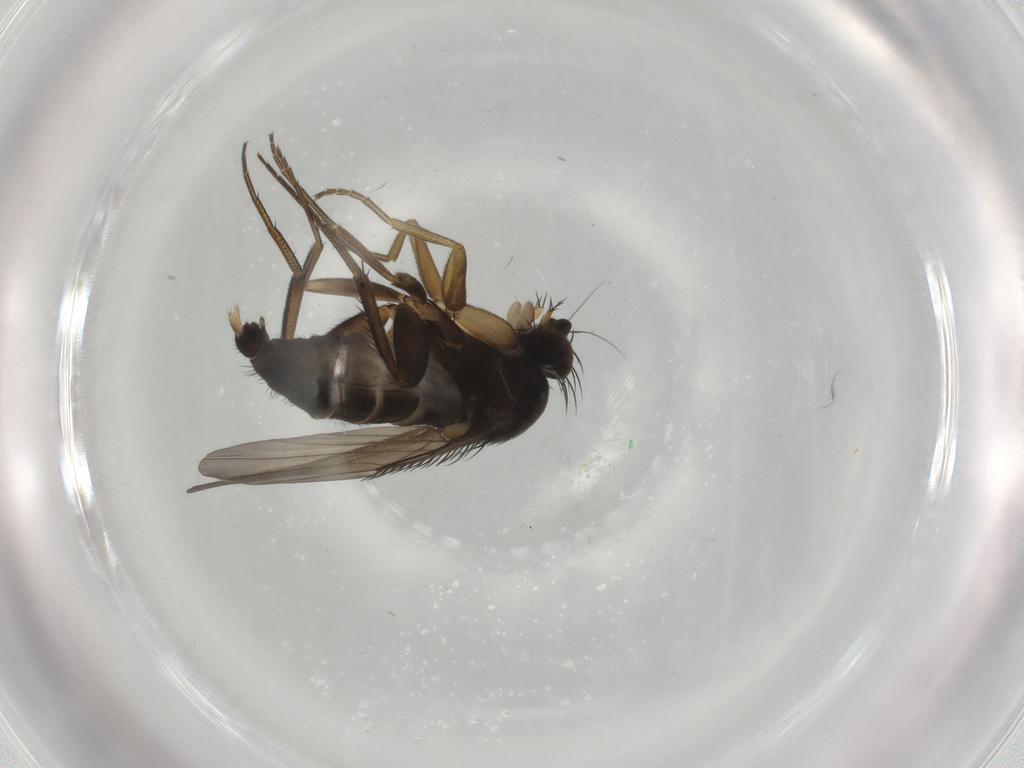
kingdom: Animalia
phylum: Arthropoda
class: Insecta
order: Diptera
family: Phoridae
